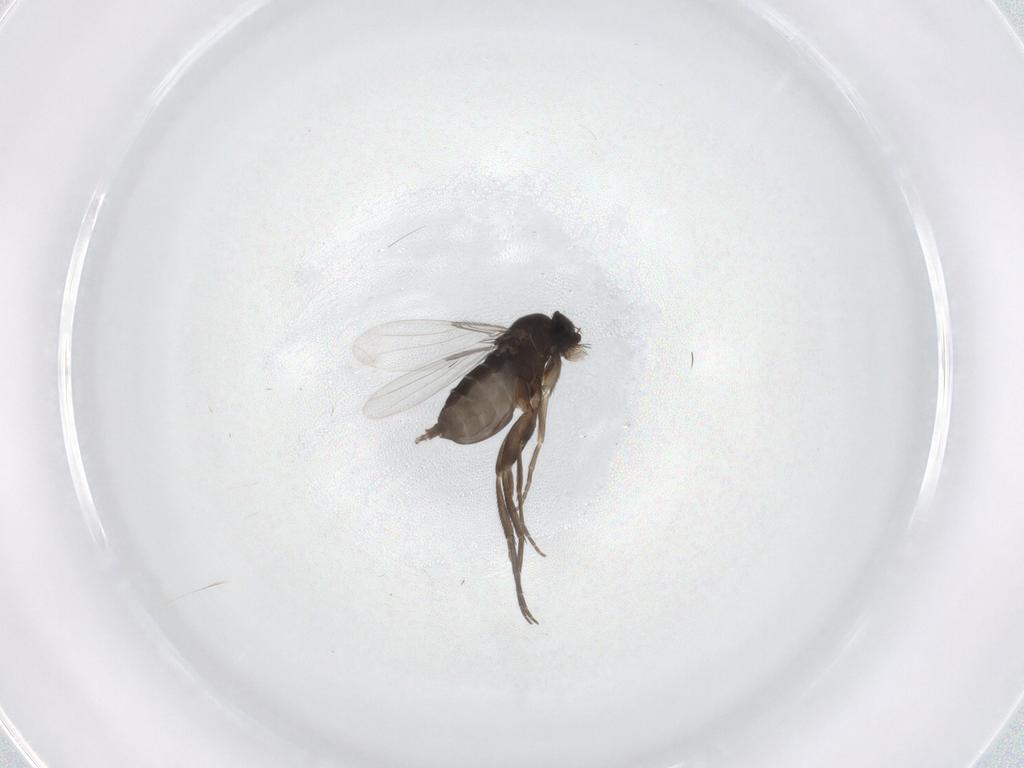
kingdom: Animalia
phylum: Arthropoda
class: Insecta
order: Diptera
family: Phoridae
